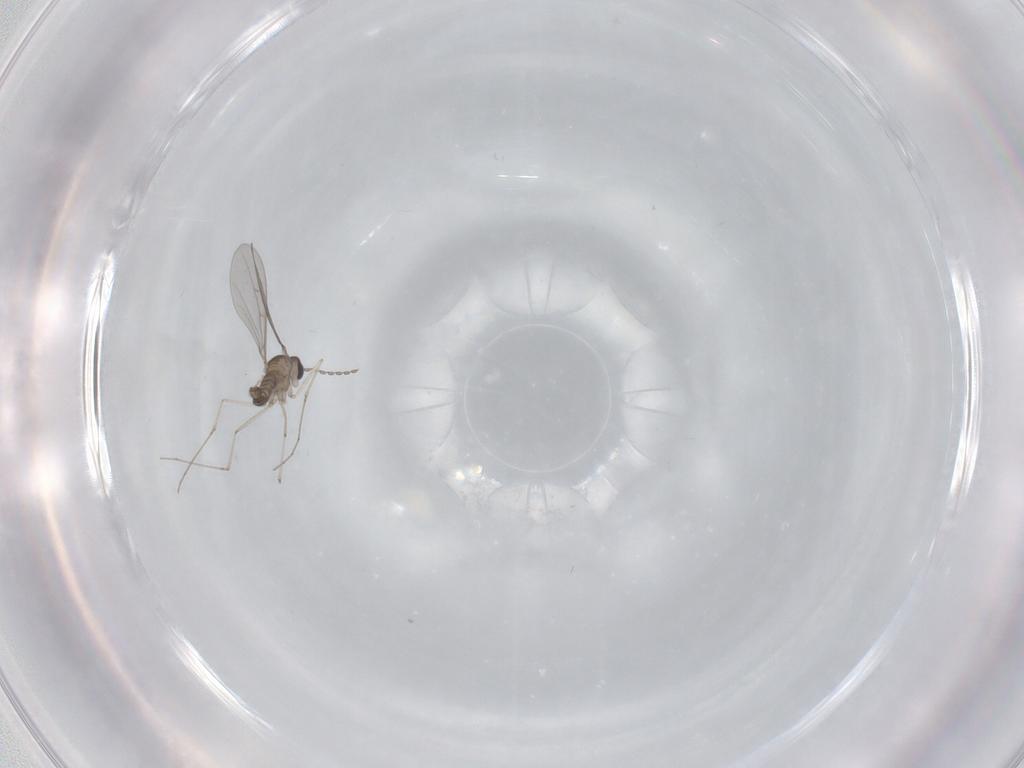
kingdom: Animalia
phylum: Arthropoda
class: Insecta
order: Diptera
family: Cecidomyiidae
